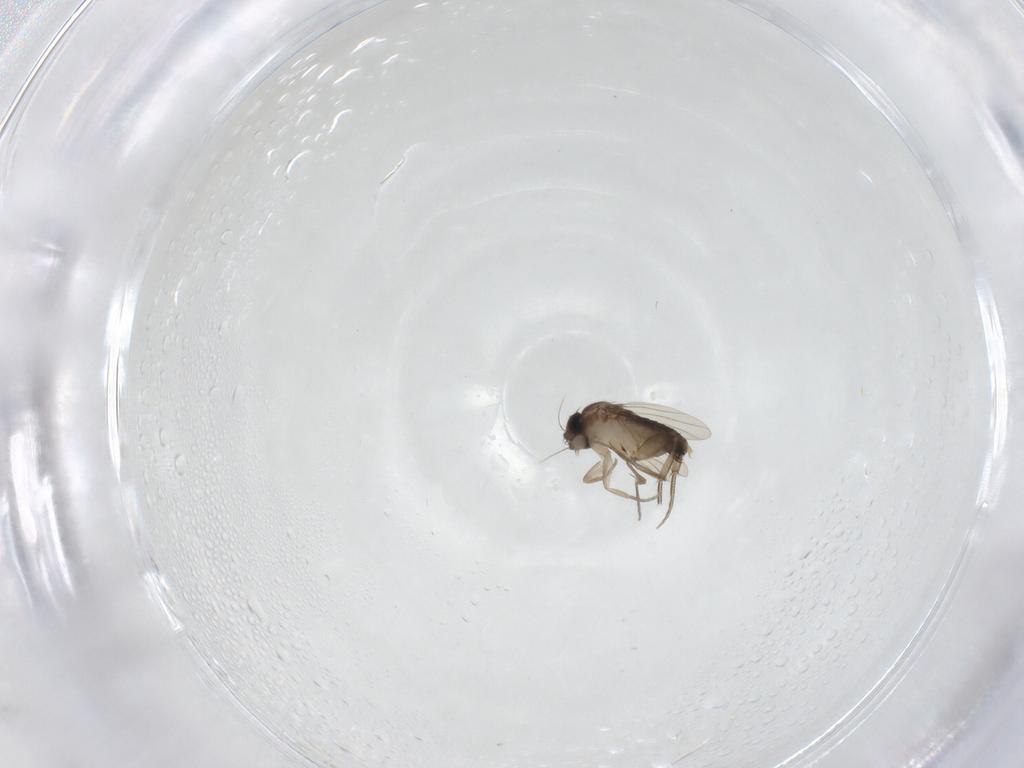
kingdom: Animalia
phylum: Arthropoda
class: Insecta
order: Diptera
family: Phoridae
